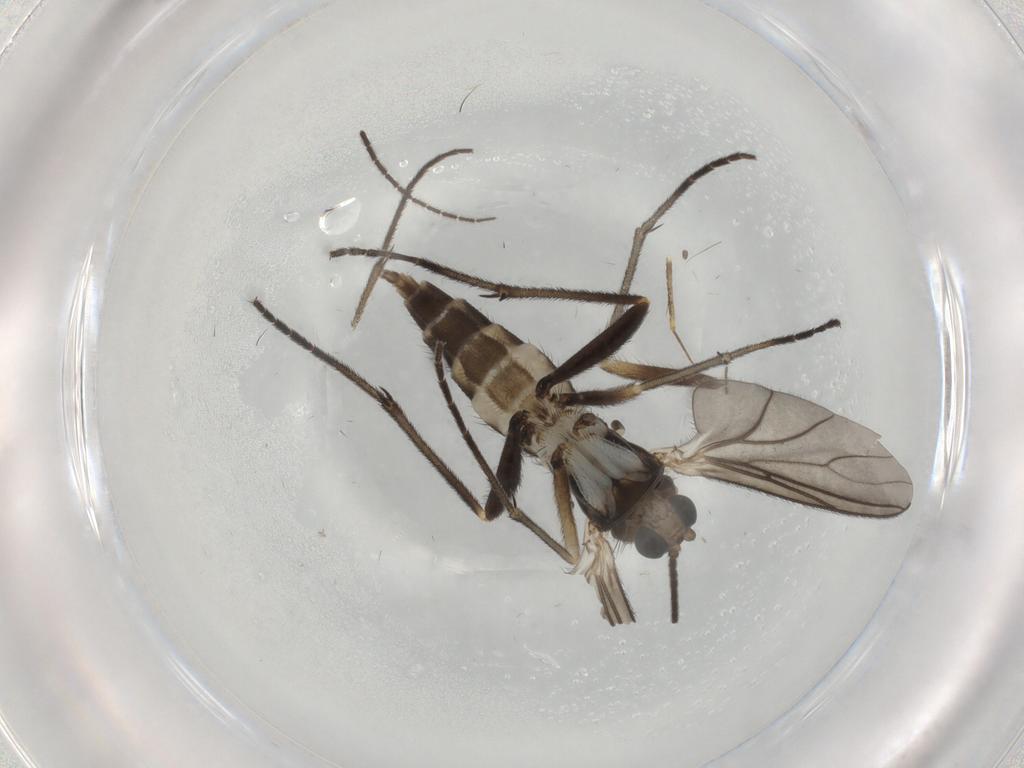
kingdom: Animalia
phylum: Arthropoda
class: Insecta
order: Diptera
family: Sciaridae
